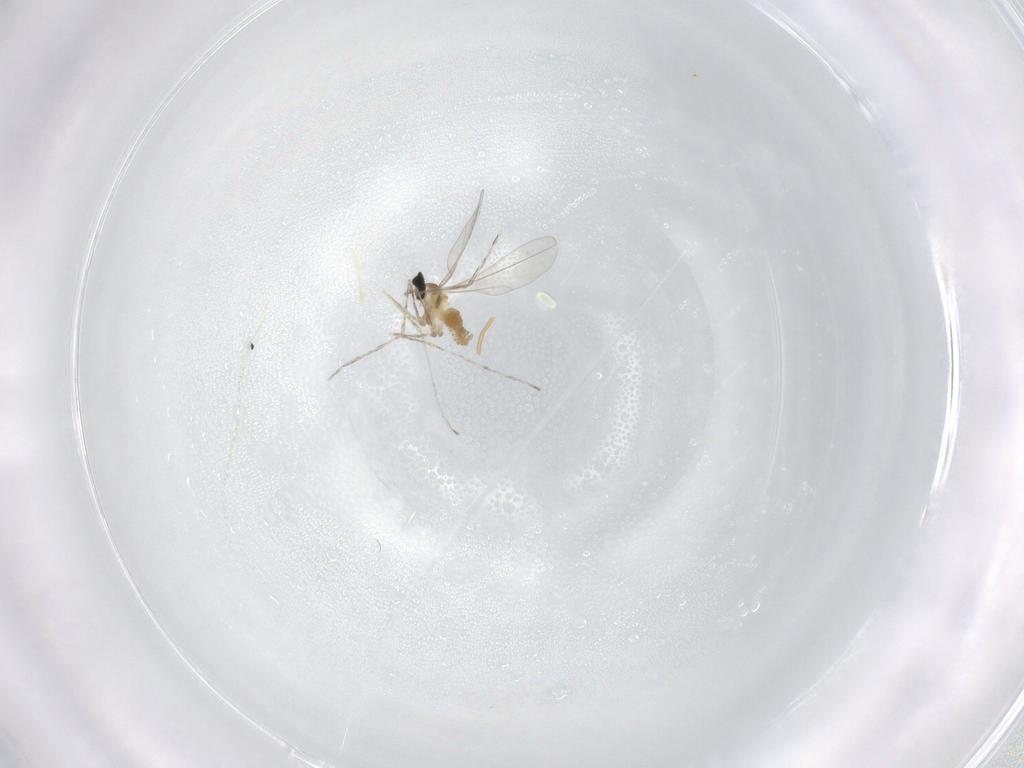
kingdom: Animalia
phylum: Arthropoda
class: Insecta
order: Diptera
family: Cecidomyiidae
